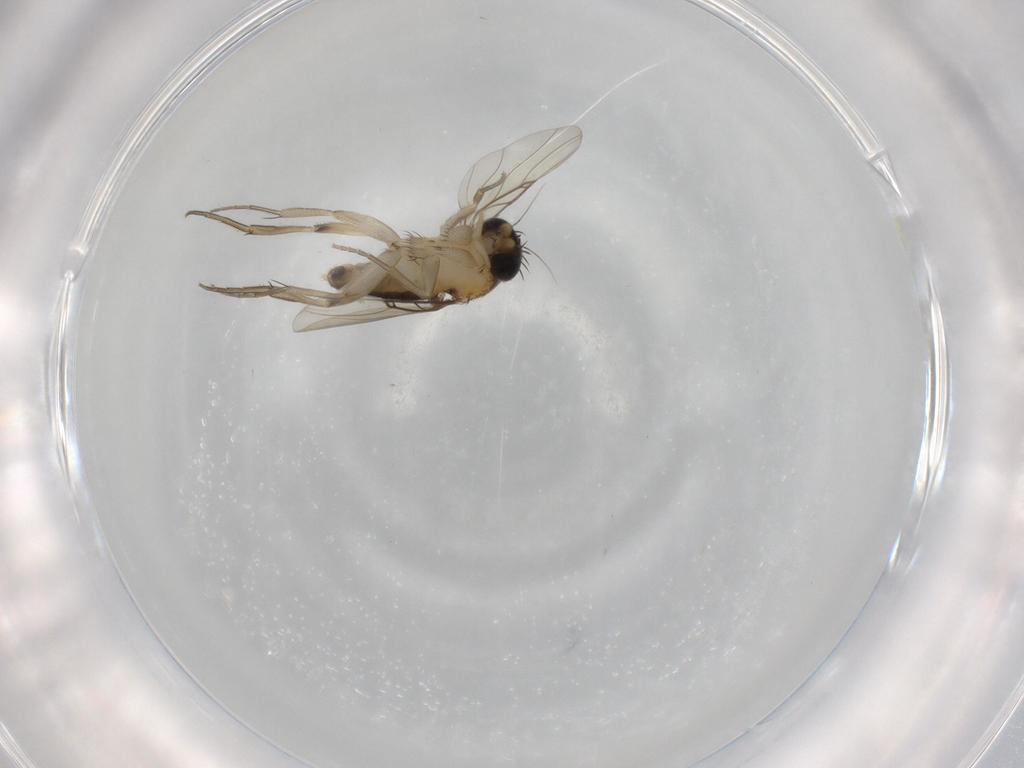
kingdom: Animalia
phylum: Arthropoda
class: Insecta
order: Diptera
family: Phoridae
